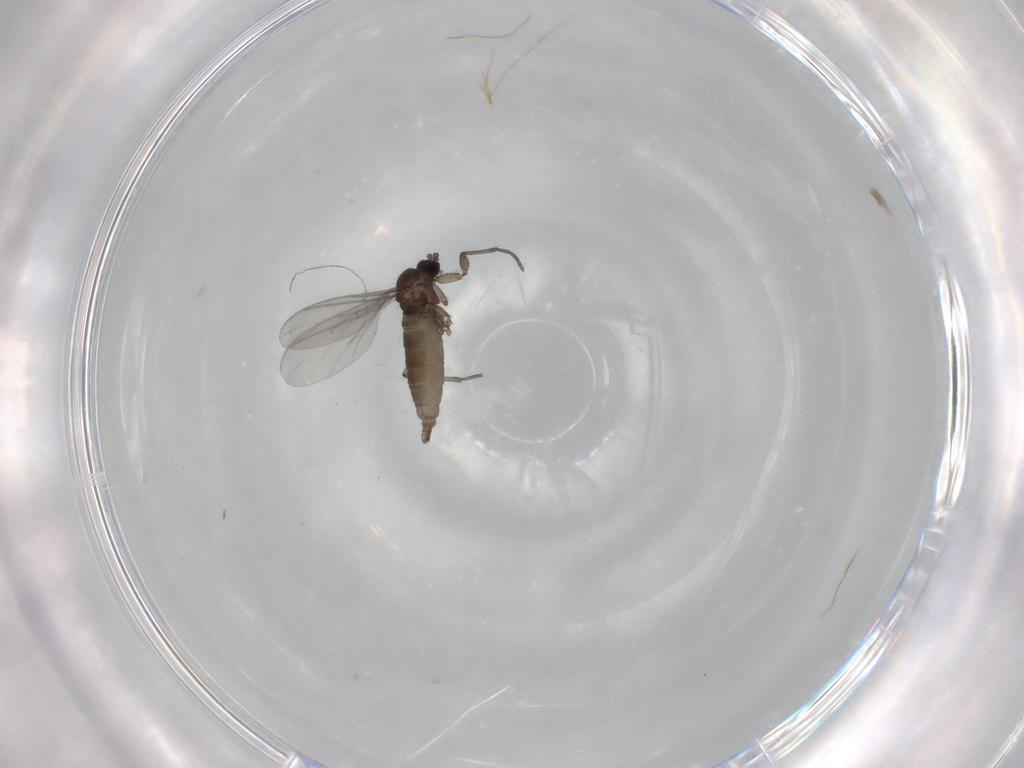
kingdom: Animalia
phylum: Arthropoda
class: Insecta
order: Diptera
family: Sciaridae
